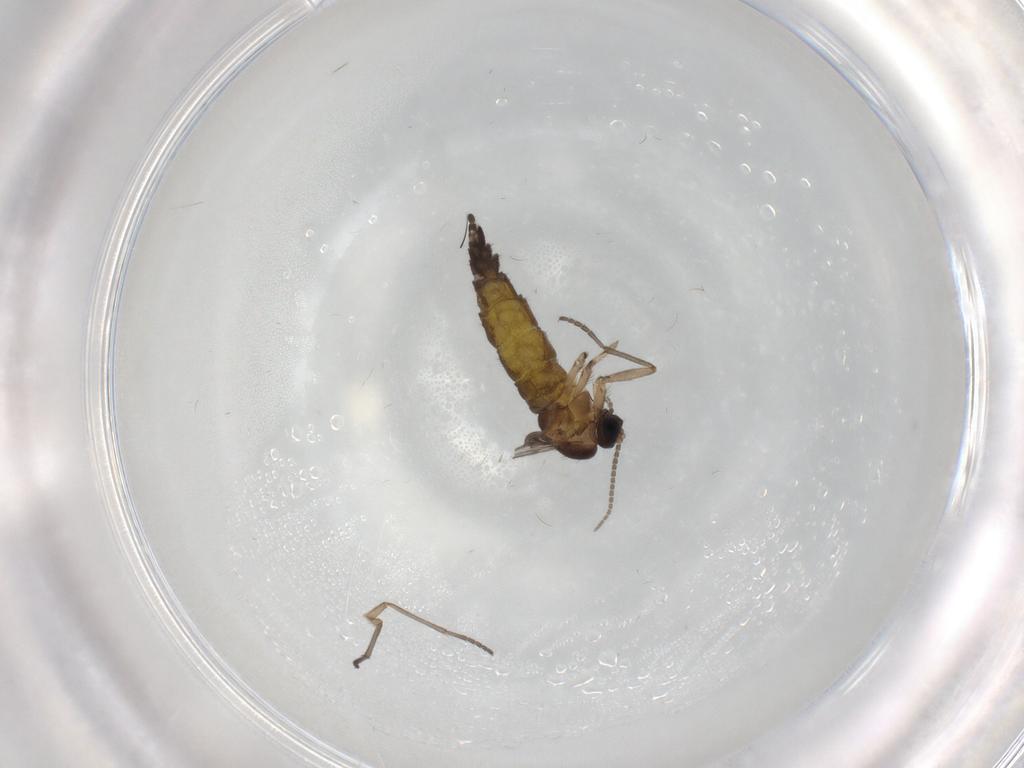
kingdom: Animalia
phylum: Arthropoda
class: Insecta
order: Diptera
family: Sciaridae
